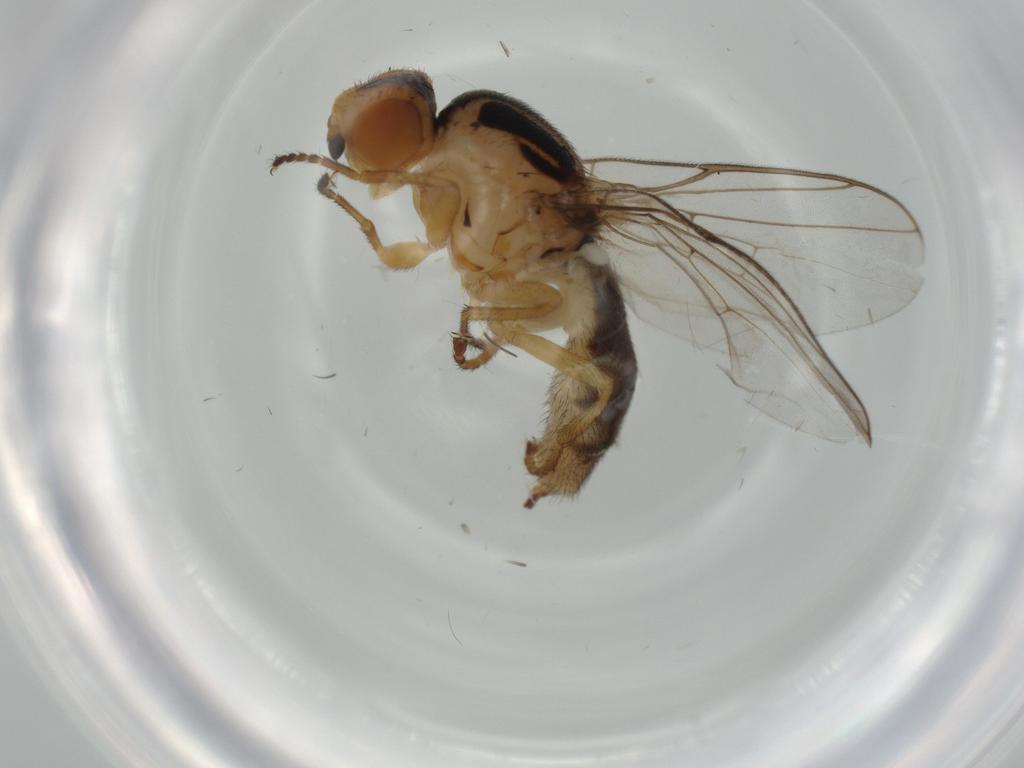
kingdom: Animalia
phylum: Arthropoda
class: Insecta
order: Diptera
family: Chloropidae
